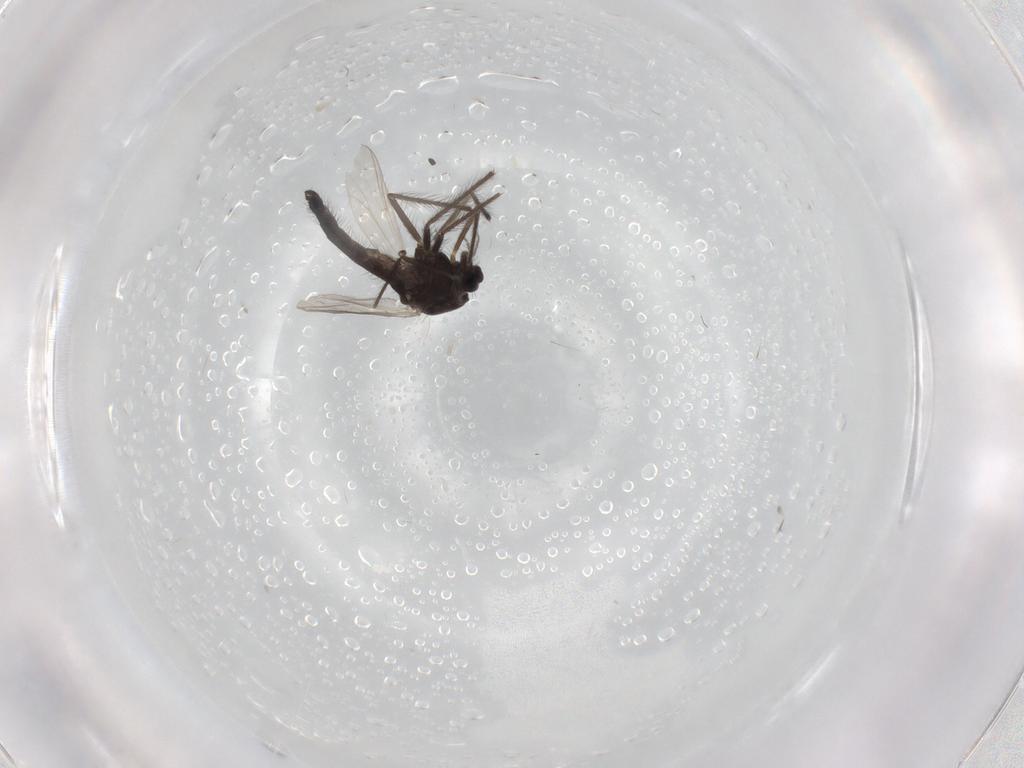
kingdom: Animalia
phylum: Arthropoda
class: Insecta
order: Diptera
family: Chironomidae
